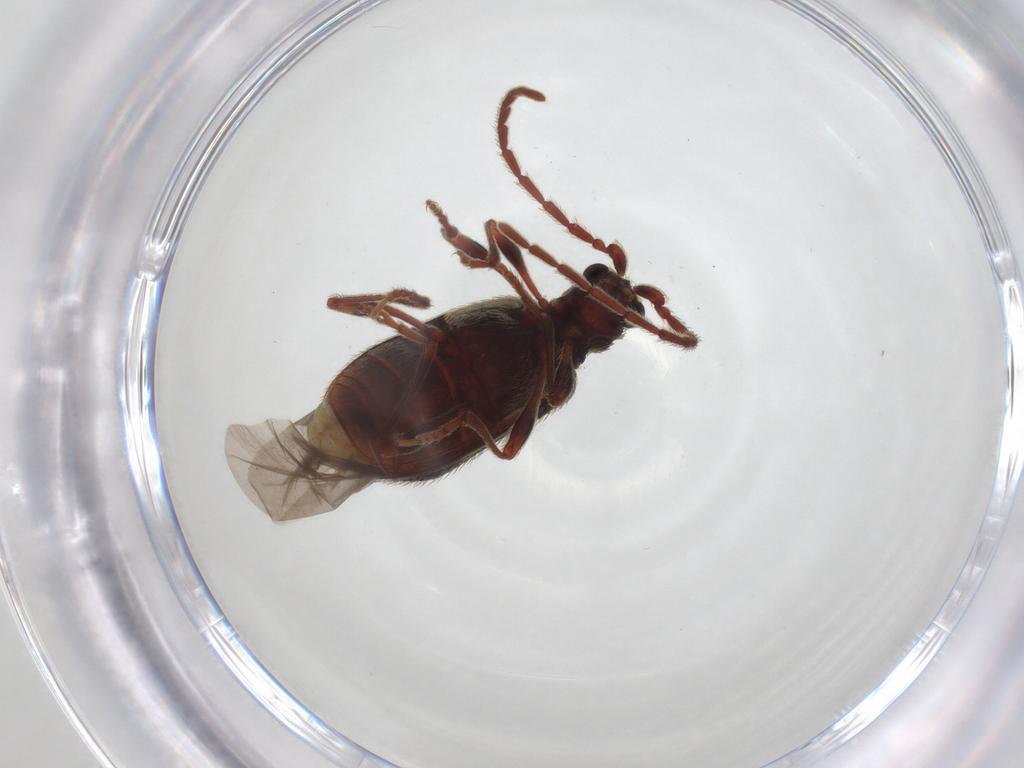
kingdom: Animalia
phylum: Arthropoda
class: Insecta
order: Coleoptera
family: Ptinidae
